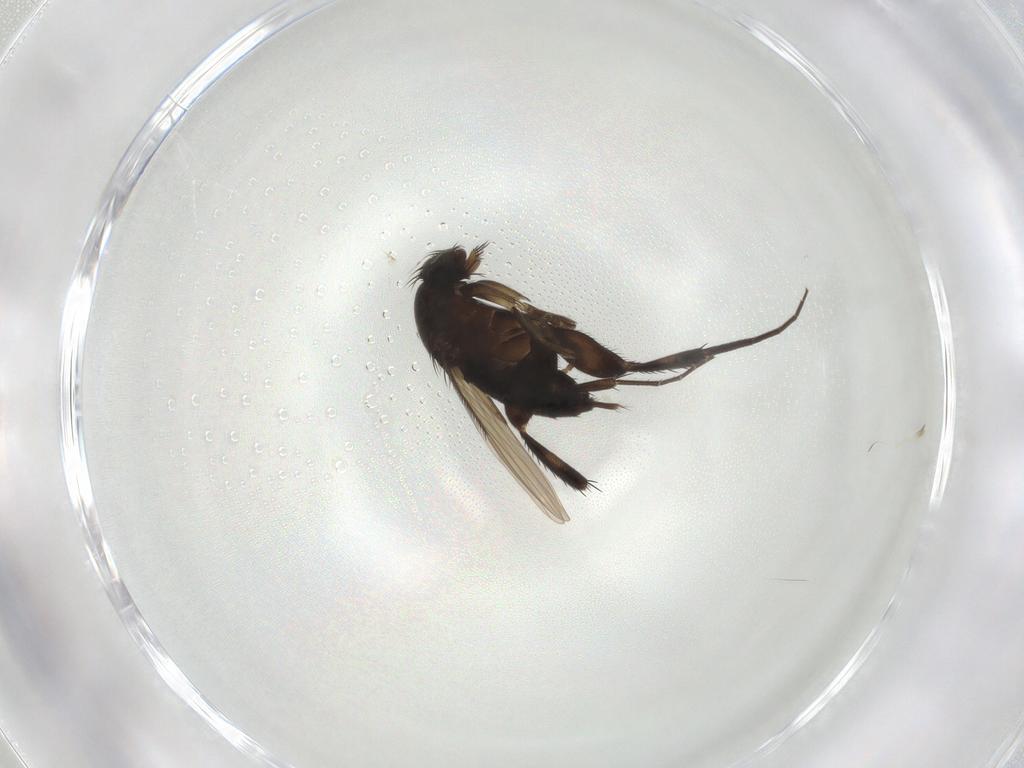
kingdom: Animalia
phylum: Arthropoda
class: Insecta
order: Diptera
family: Phoridae
